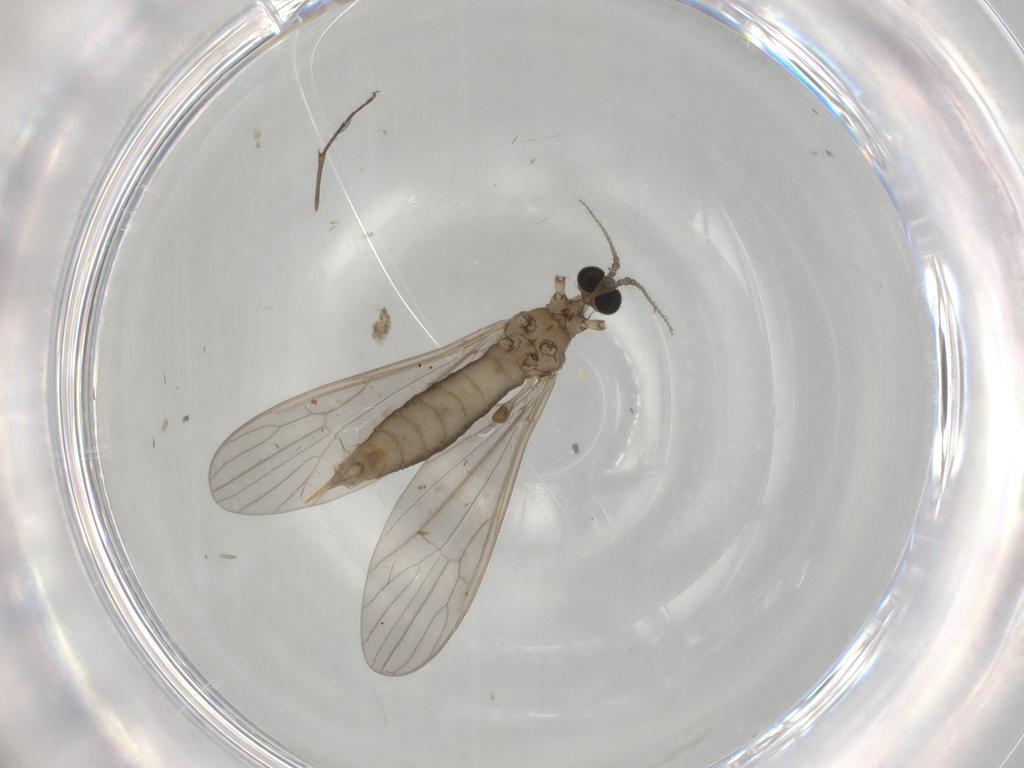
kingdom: Animalia
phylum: Arthropoda
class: Insecta
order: Diptera
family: Limoniidae
